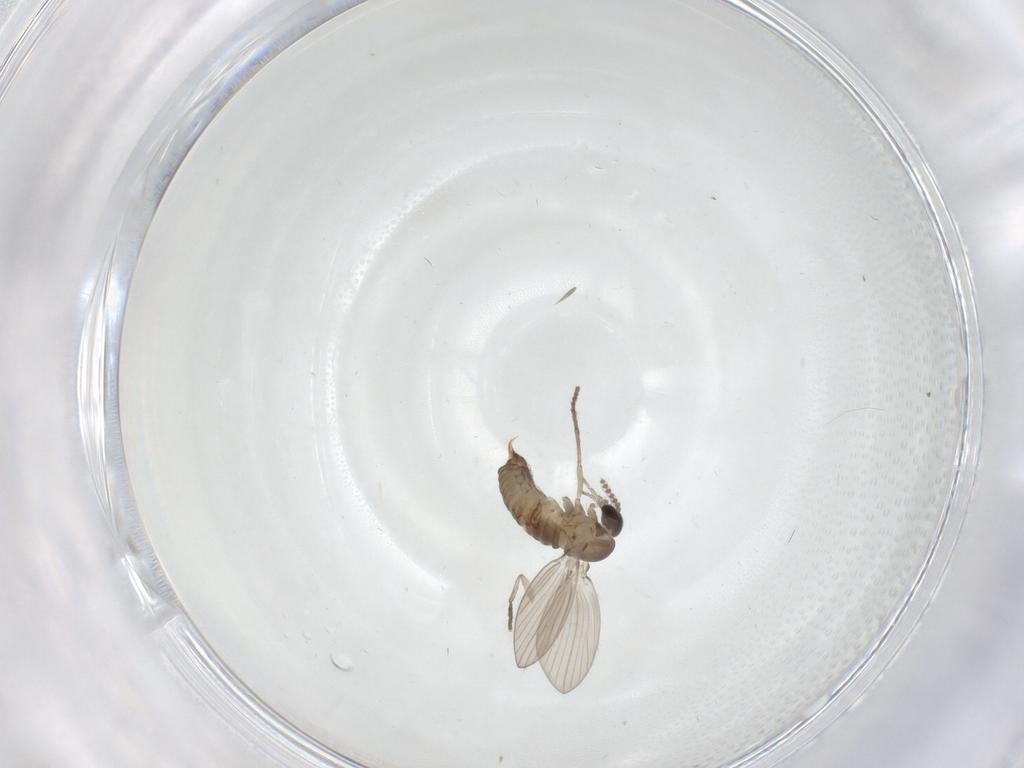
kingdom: Animalia
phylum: Arthropoda
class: Insecta
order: Diptera
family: Psychodidae
